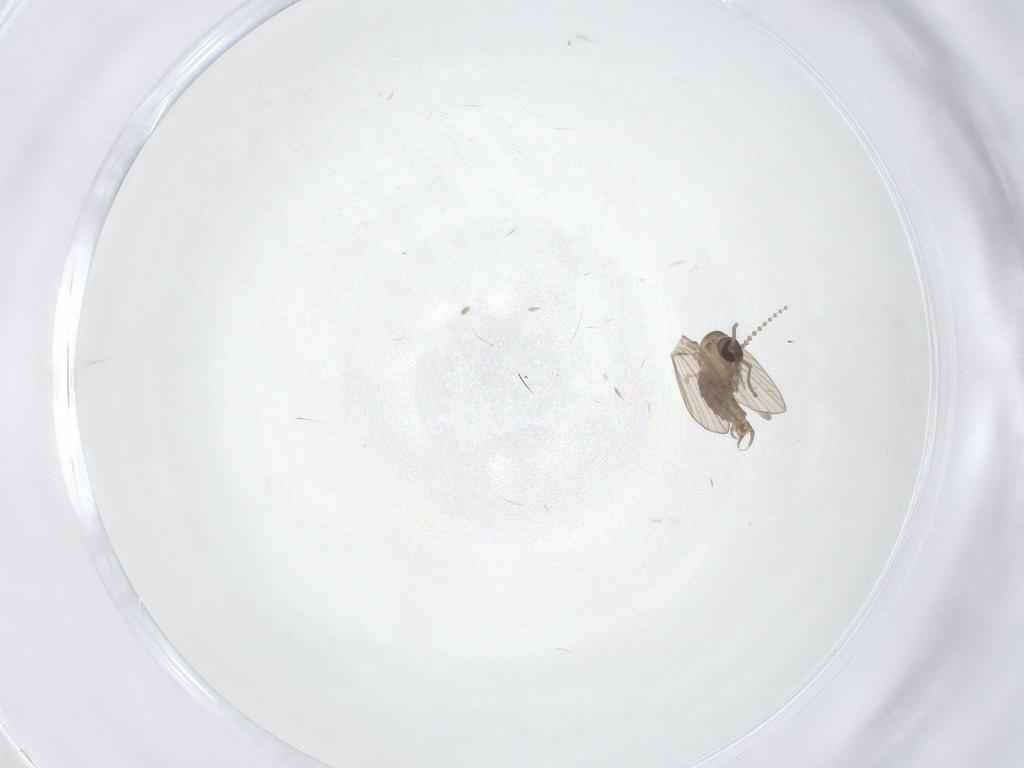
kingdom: Animalia
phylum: Arthropoda
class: Insecta
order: Diptera
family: Psychodidae
